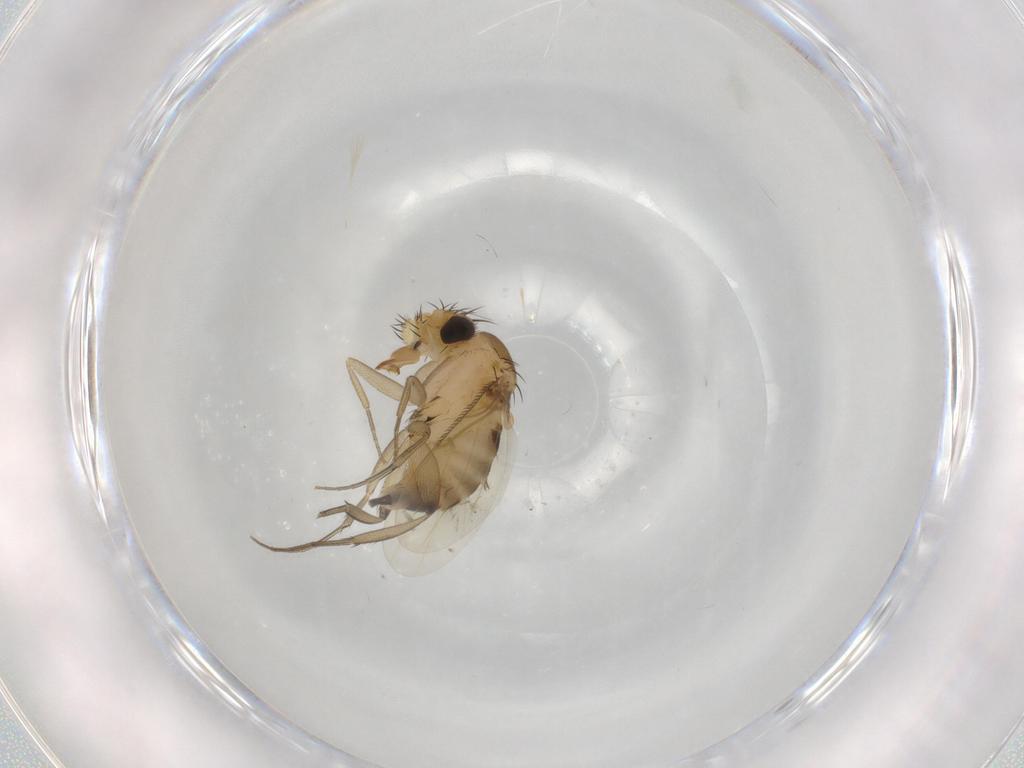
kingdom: Animalia
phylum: Arthropoda
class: Insecta
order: Diptera
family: Phoridae
